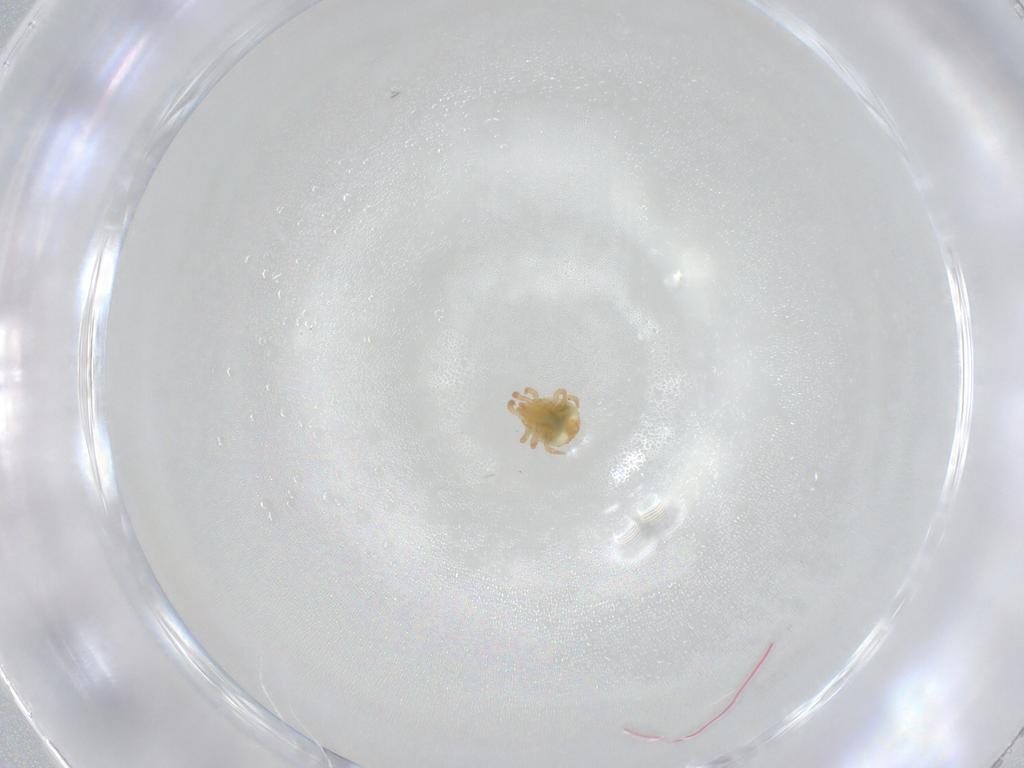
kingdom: Animalia
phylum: Arthropoda
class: Arachnida
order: Mesostigmata
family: Sejidae
